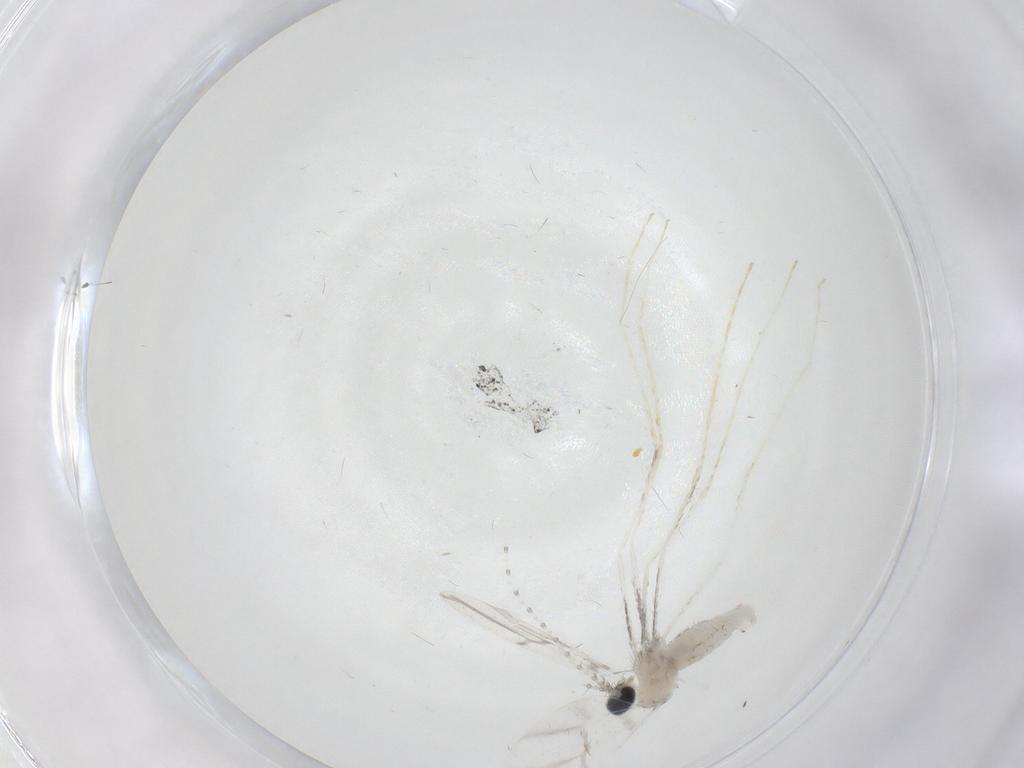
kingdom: Animalia
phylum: Arthropoda
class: Insecta
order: Diptera
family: Cecidomyiidae
